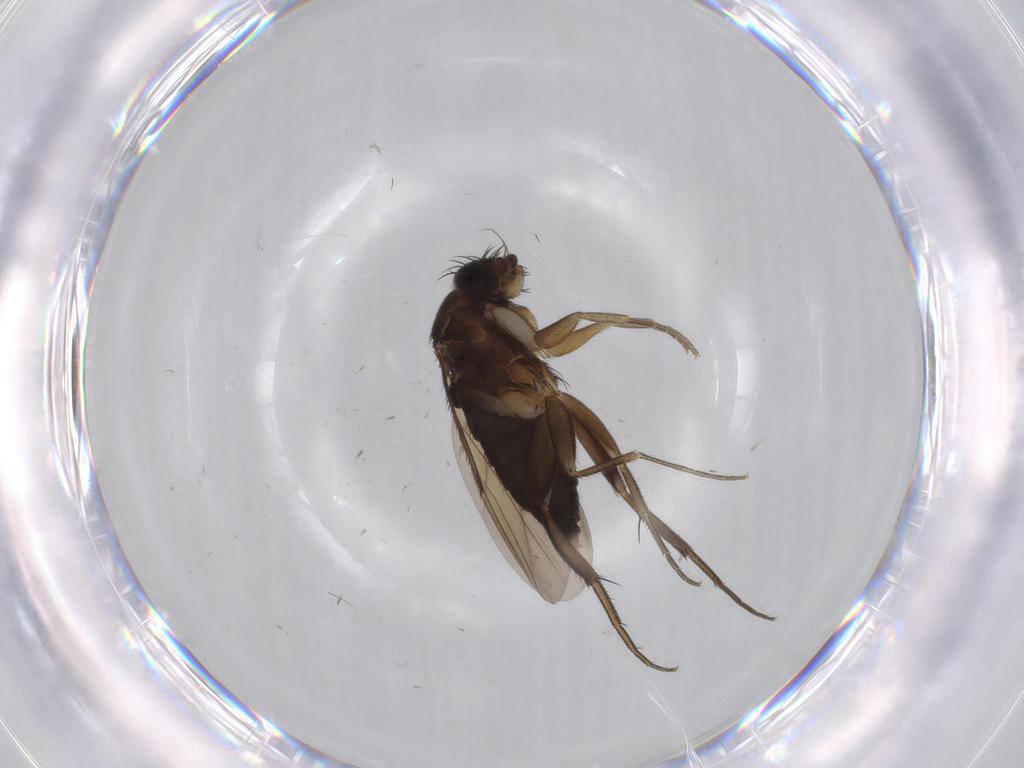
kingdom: Animalia
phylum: Arthropoda
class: Insecta
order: Diptera
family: Phoridae
